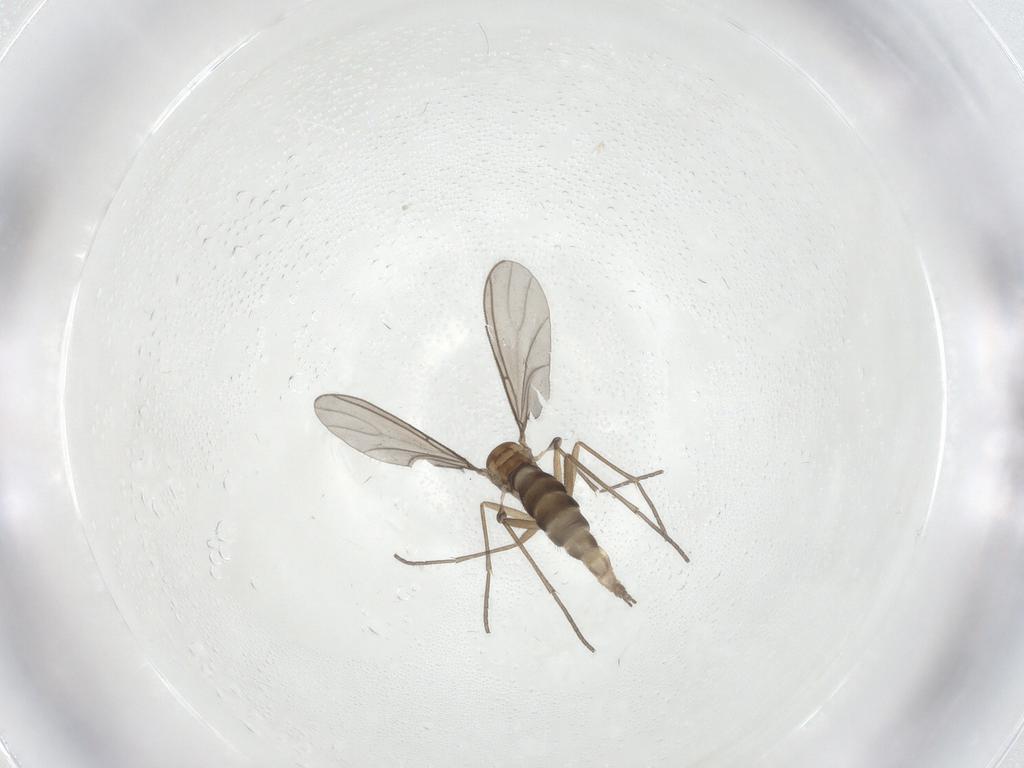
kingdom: Animalia
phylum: Arthropoda
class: Insecta
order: Diptera
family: Sciaridae
